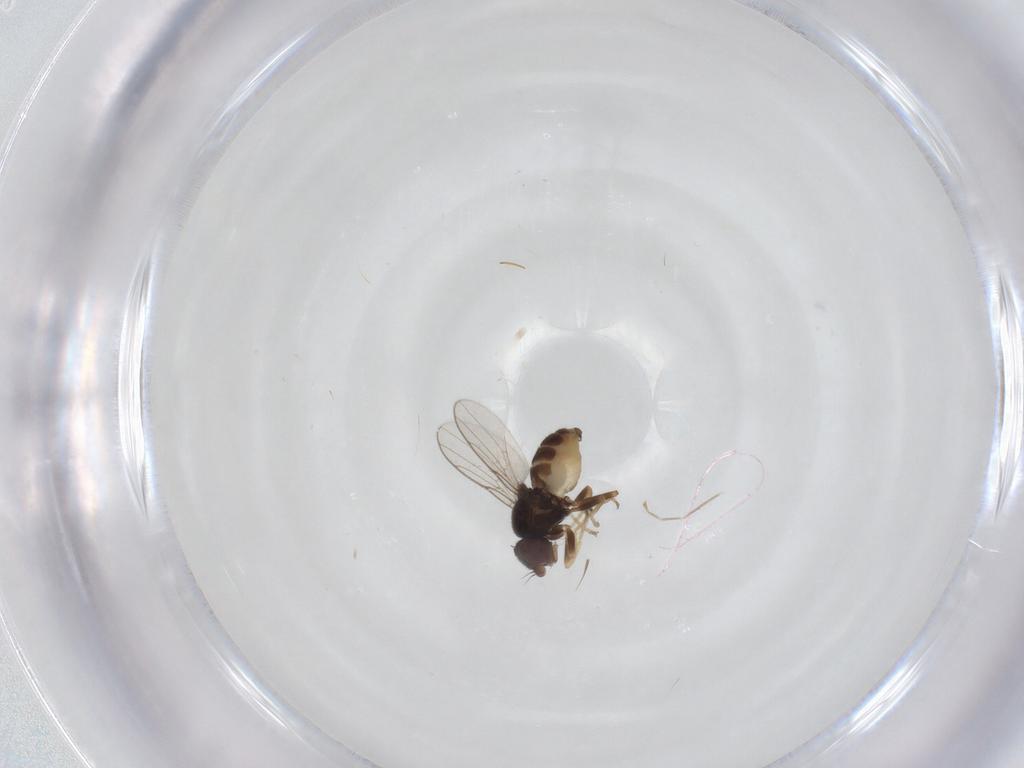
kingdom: Animalia
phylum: Arthropoda
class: Insecta
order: Diptera
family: Chloropidae
